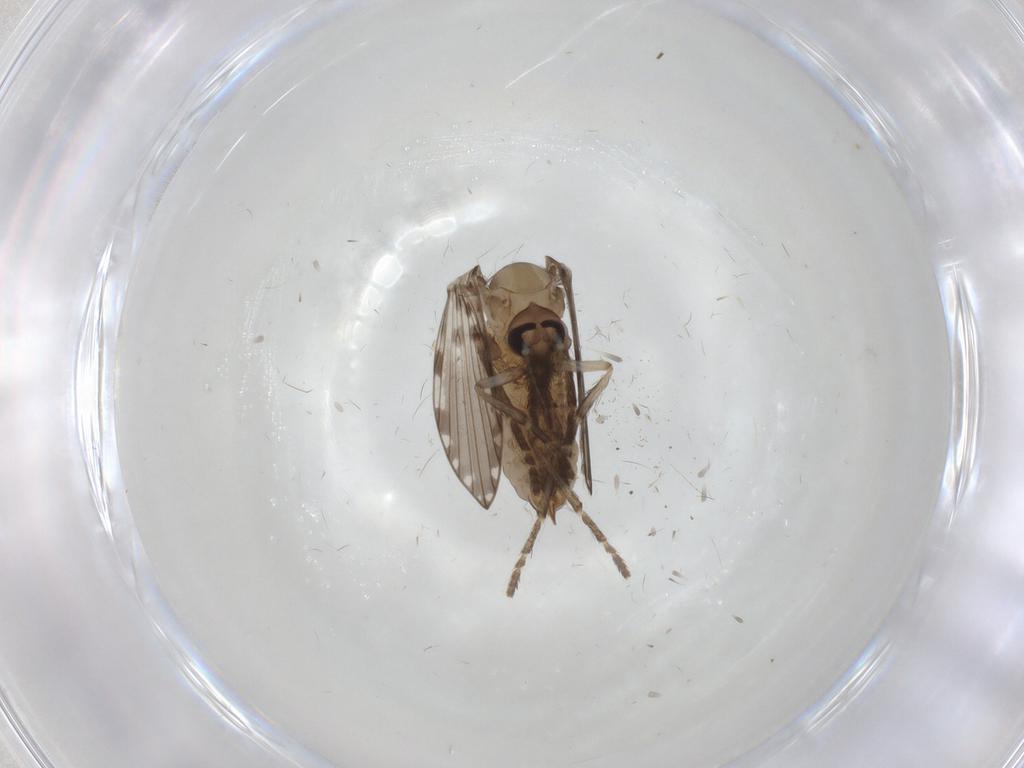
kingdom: Animalia
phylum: Arthropoda
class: Insecta
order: Diptera
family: Psychodidae
